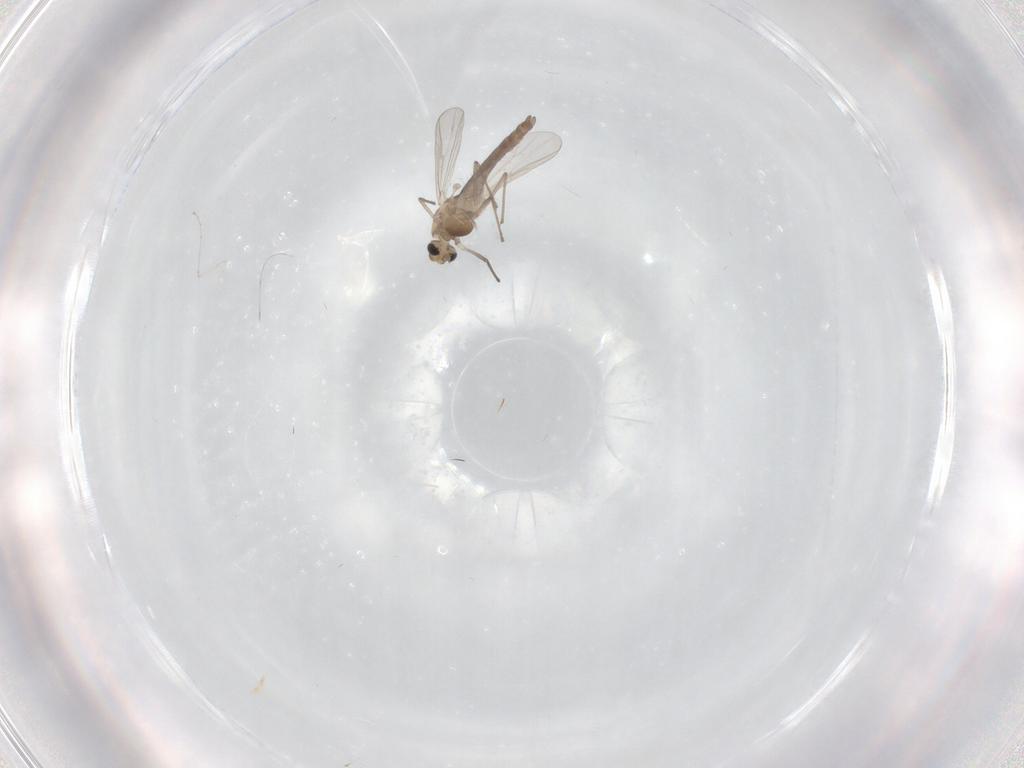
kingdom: Animalia
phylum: Arthropoda
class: Insecta
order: Diptera
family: Chironomidae
